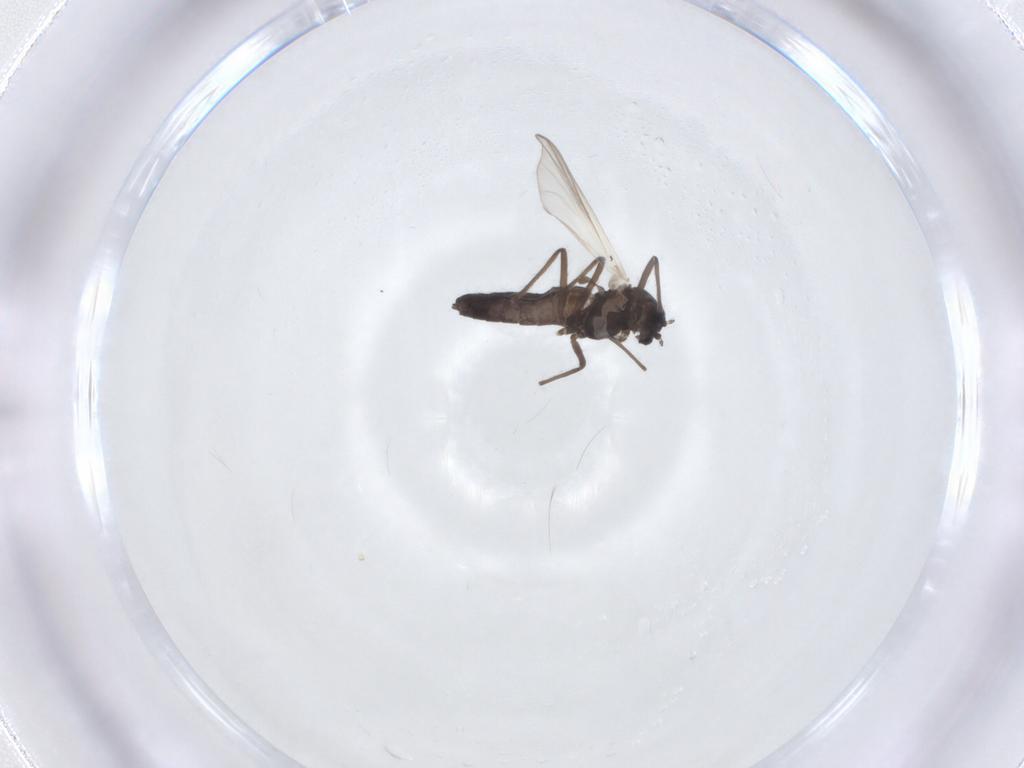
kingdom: Animalia
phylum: Arthropoda
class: Insecta
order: Diptera
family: Chironomidae
